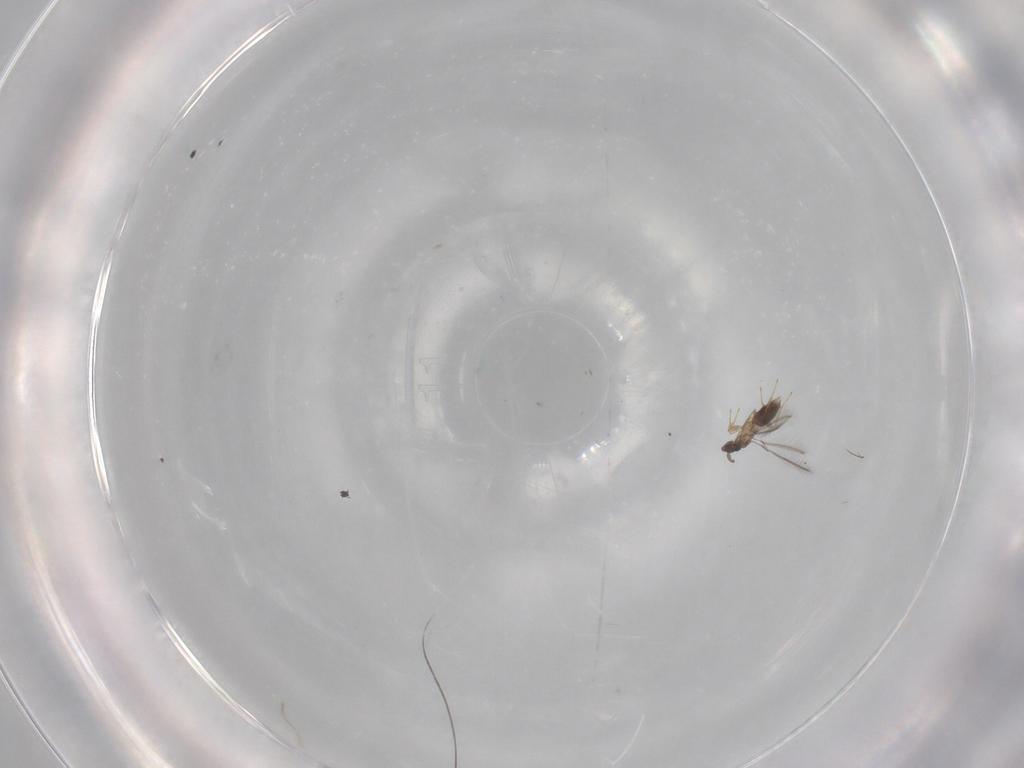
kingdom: Animalia
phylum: Arthropoda
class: Insecta
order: Hymenoptera
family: Mymaridae
